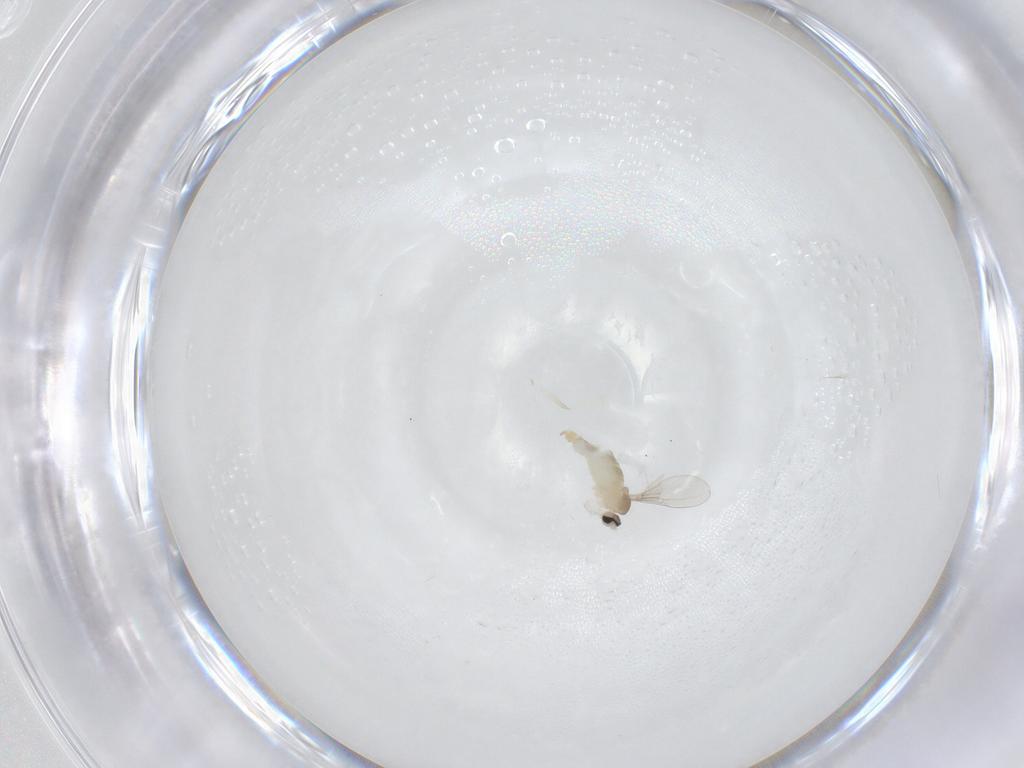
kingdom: Animalia
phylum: Arthropoda
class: Insecta
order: Diptera
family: Cecidomyiidae
